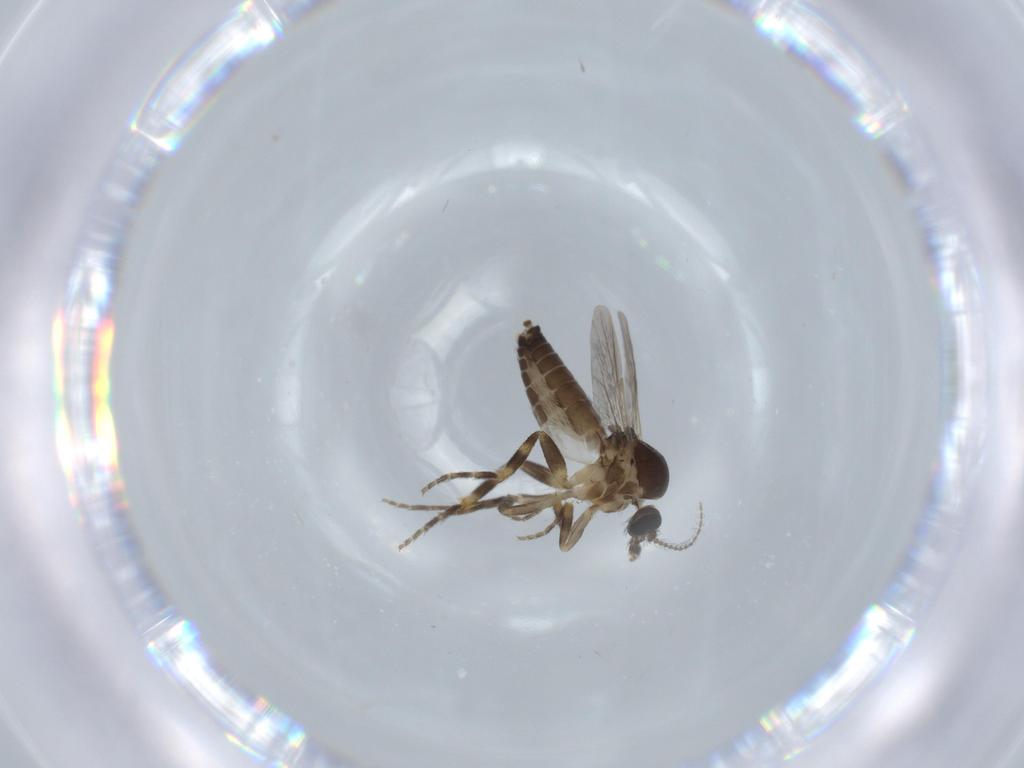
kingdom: Animalia
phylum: Arthropoda
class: Insecta
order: Diptera
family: Ceratopogonidae
